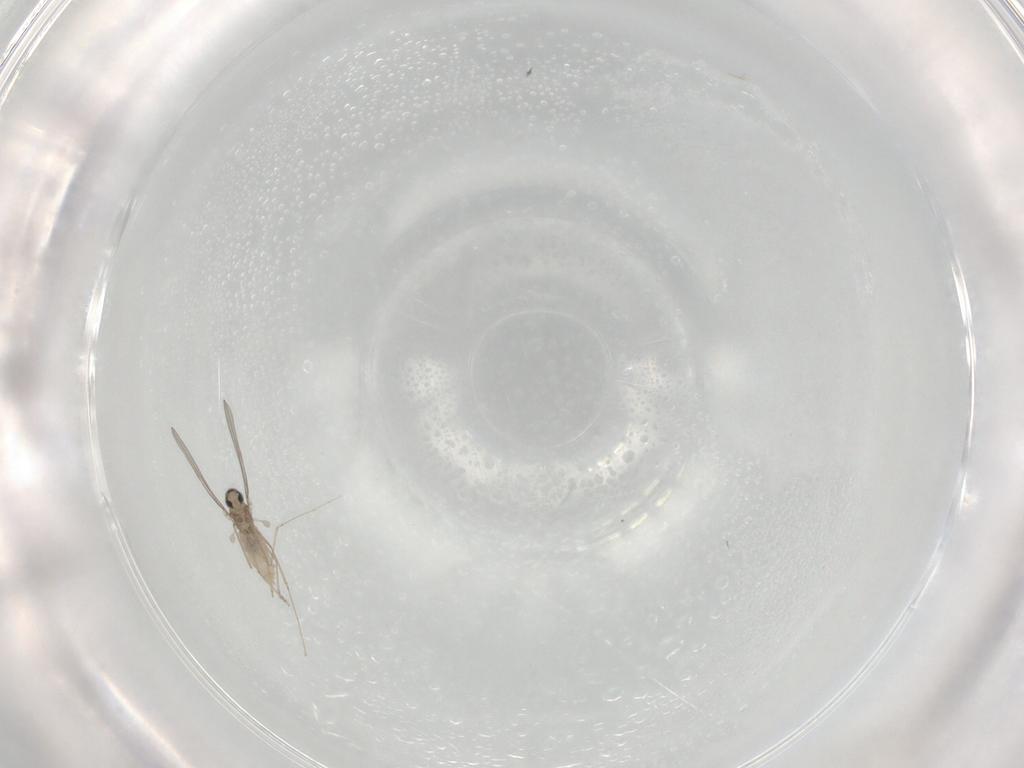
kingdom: Animalia
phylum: Arthropoda
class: Insecta
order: Diptera
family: Cecidomyiidae
